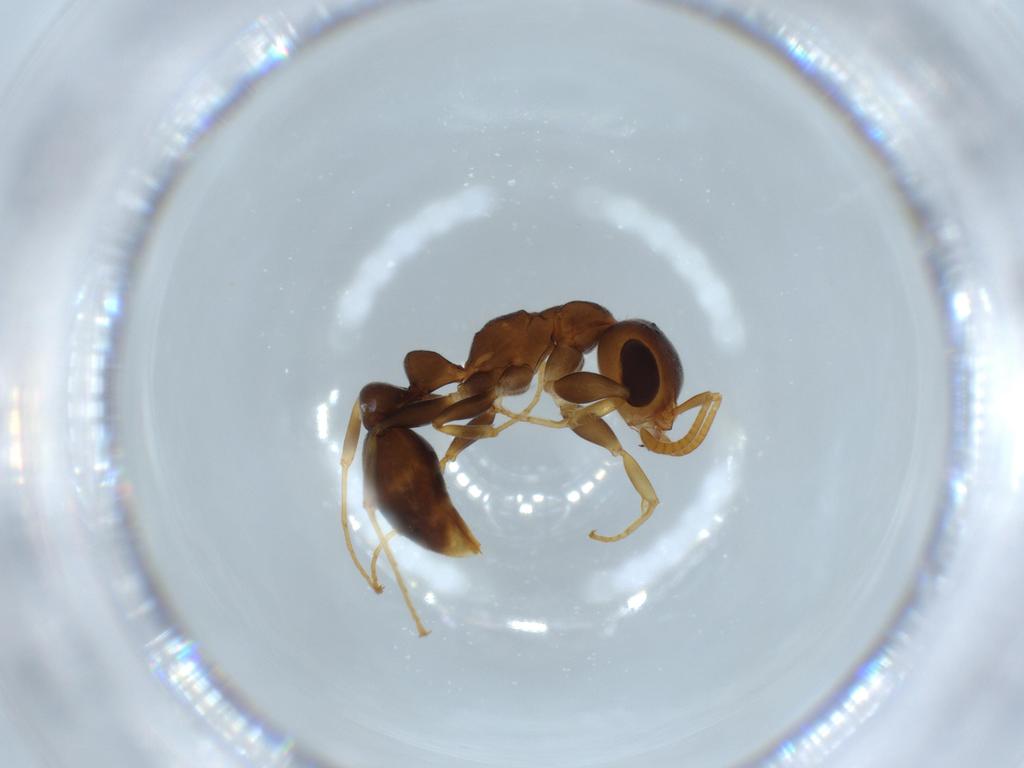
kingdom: Animalia
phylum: Arthropoda
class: Insecta
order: Hymenoptera
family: Formicidae
